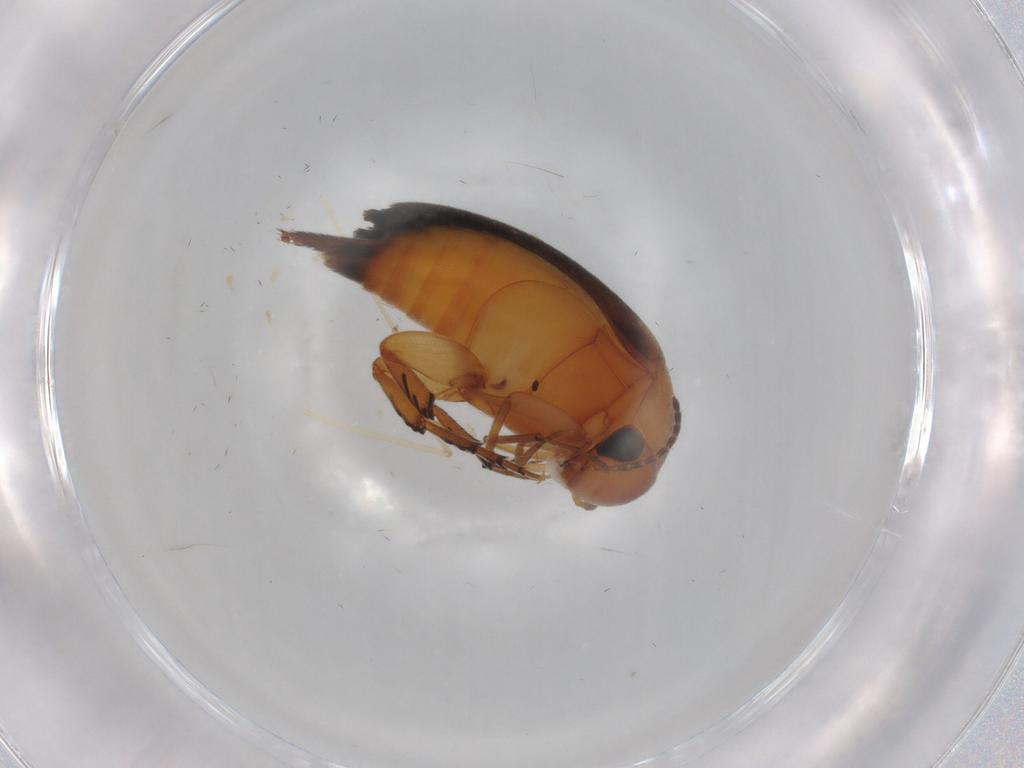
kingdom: Animalia
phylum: Arthropoda
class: Insecta
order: Coleoptera
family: Mordellidae
